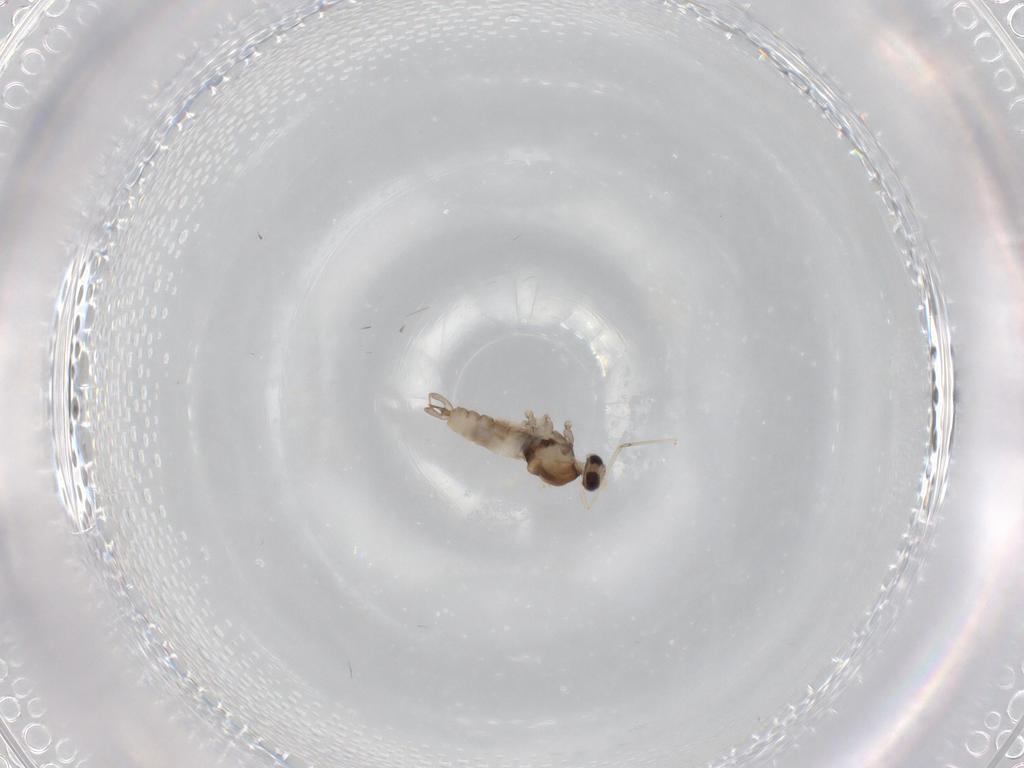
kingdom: Animalia
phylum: Arthropoda
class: Insecta
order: Diptera
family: Cecidomyiidae
